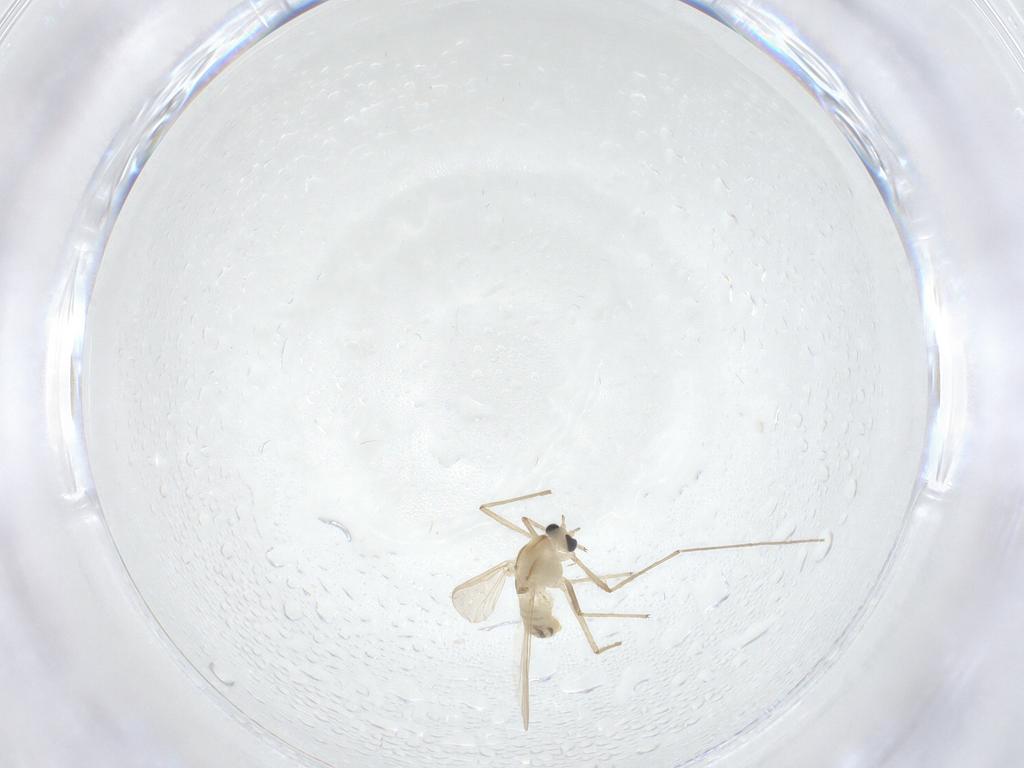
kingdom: Animalia
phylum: Arthropoda
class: Insecta
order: Diptera
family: Chironomidae
